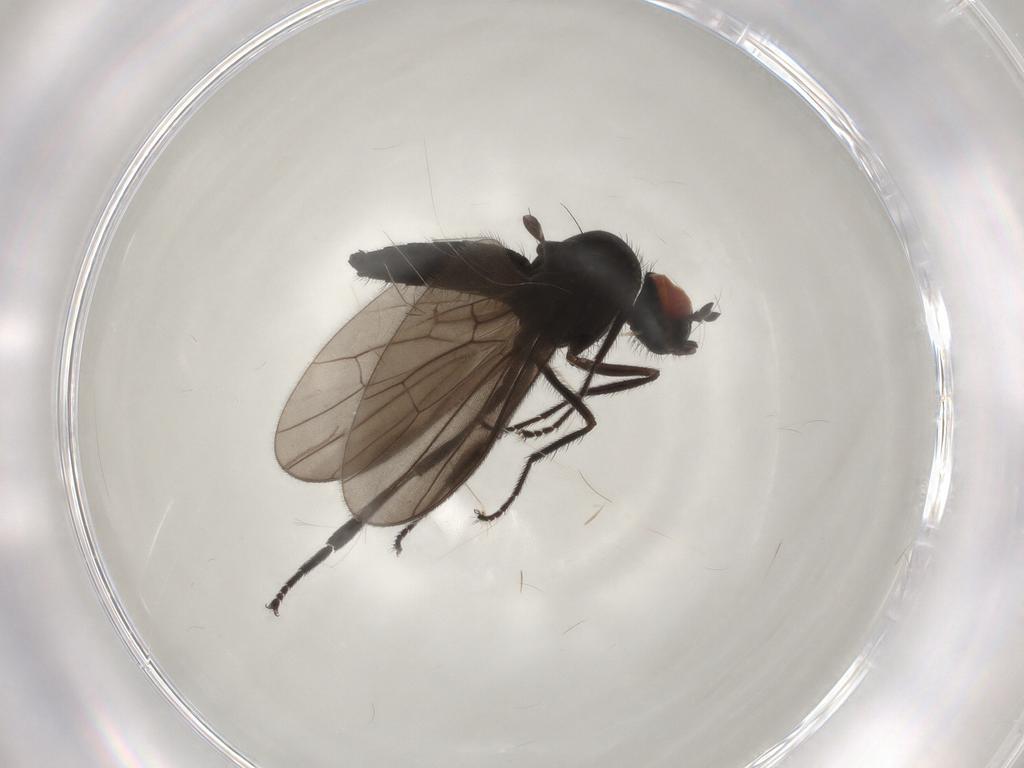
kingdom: Animalia
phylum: Arthropoda
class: Insecta
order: Diptera
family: Hybotidae
